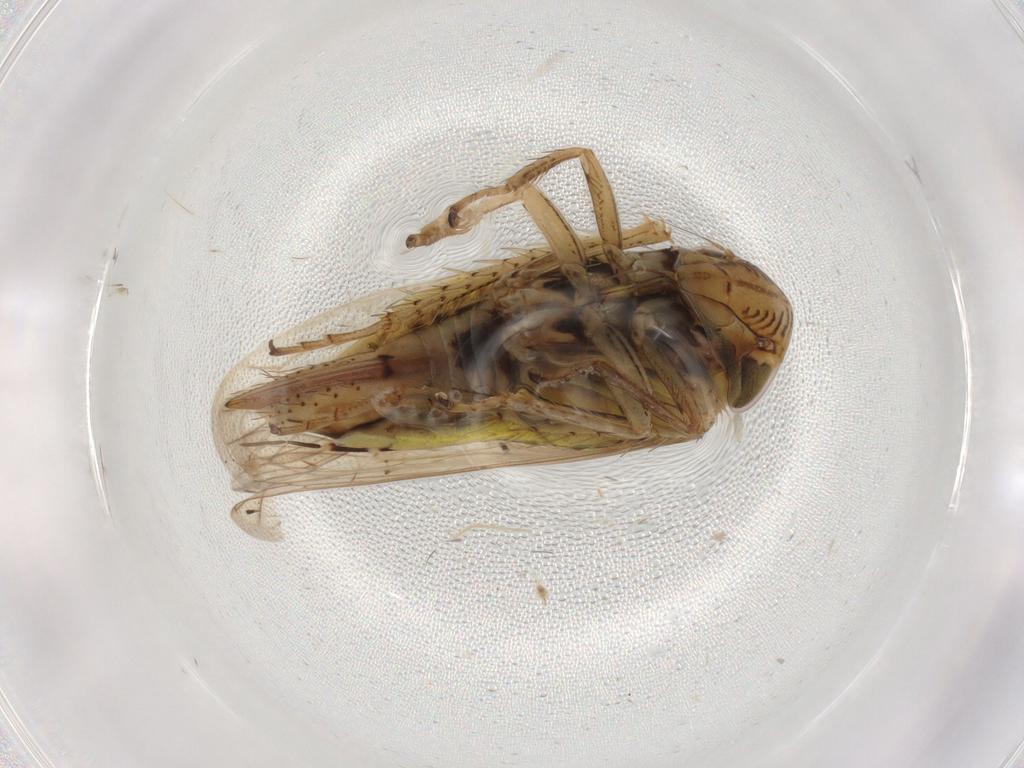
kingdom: Animalia
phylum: Arthropoda
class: Insecta
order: Hemiptera
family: Cicadellidae
